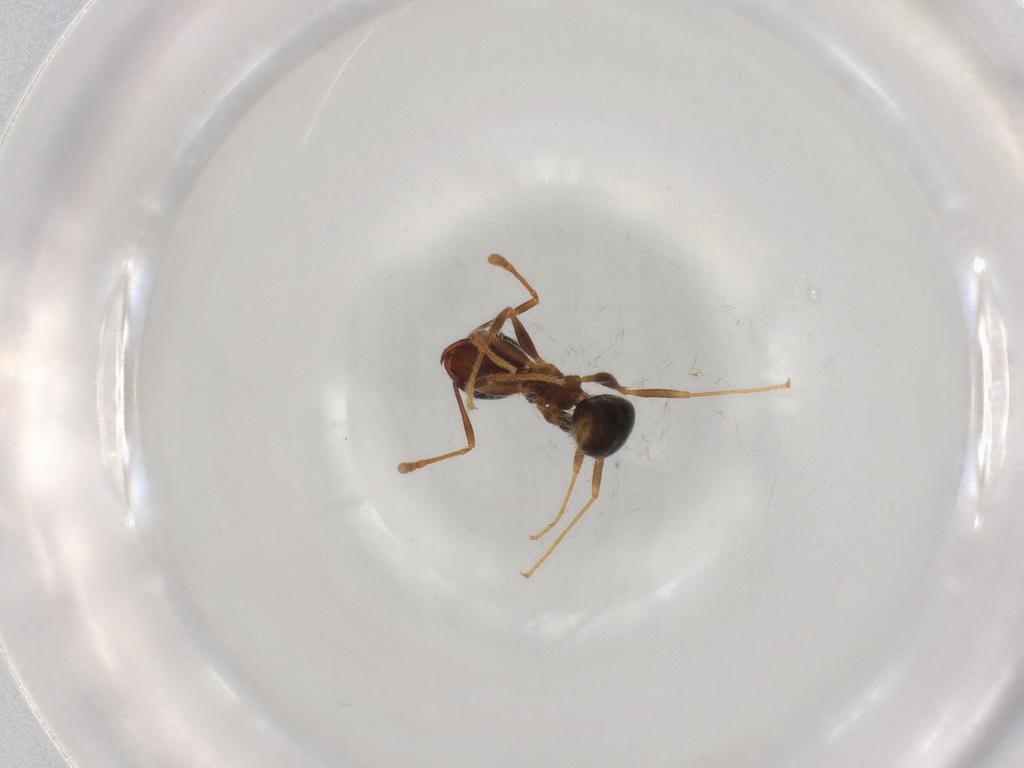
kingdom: Animalia
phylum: Arthropoda
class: Insecta
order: Hymenoptera
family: Formicidae
